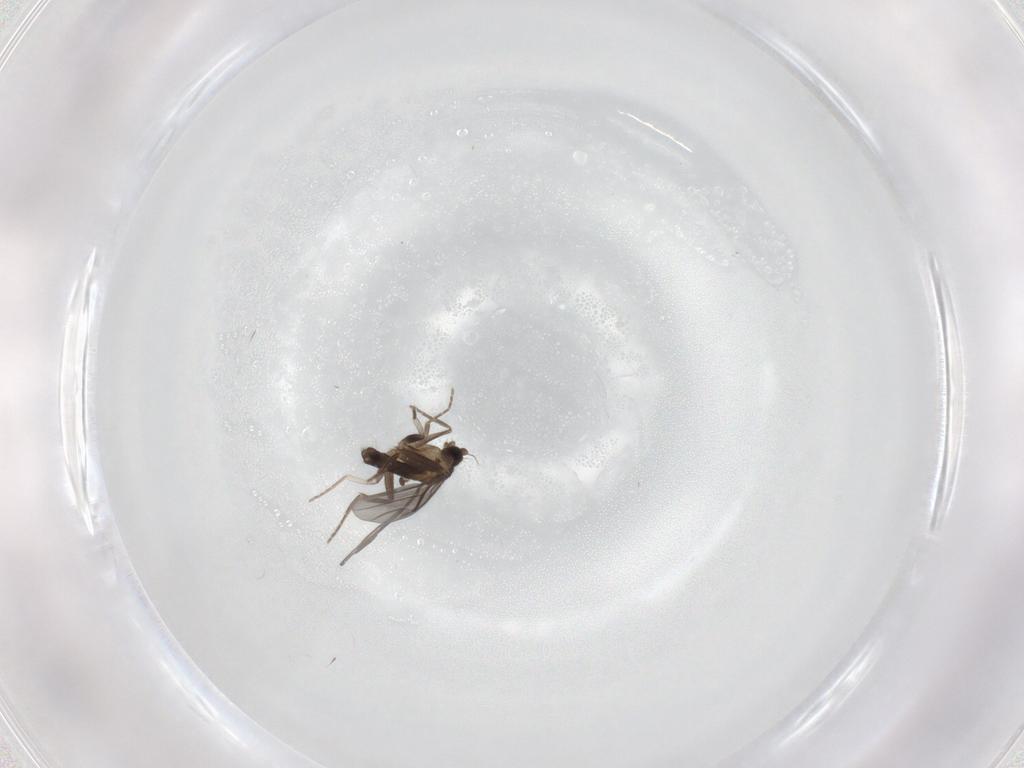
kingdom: Animalia
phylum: Arthropoda
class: Insecta
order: Diptera
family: Phoridae
